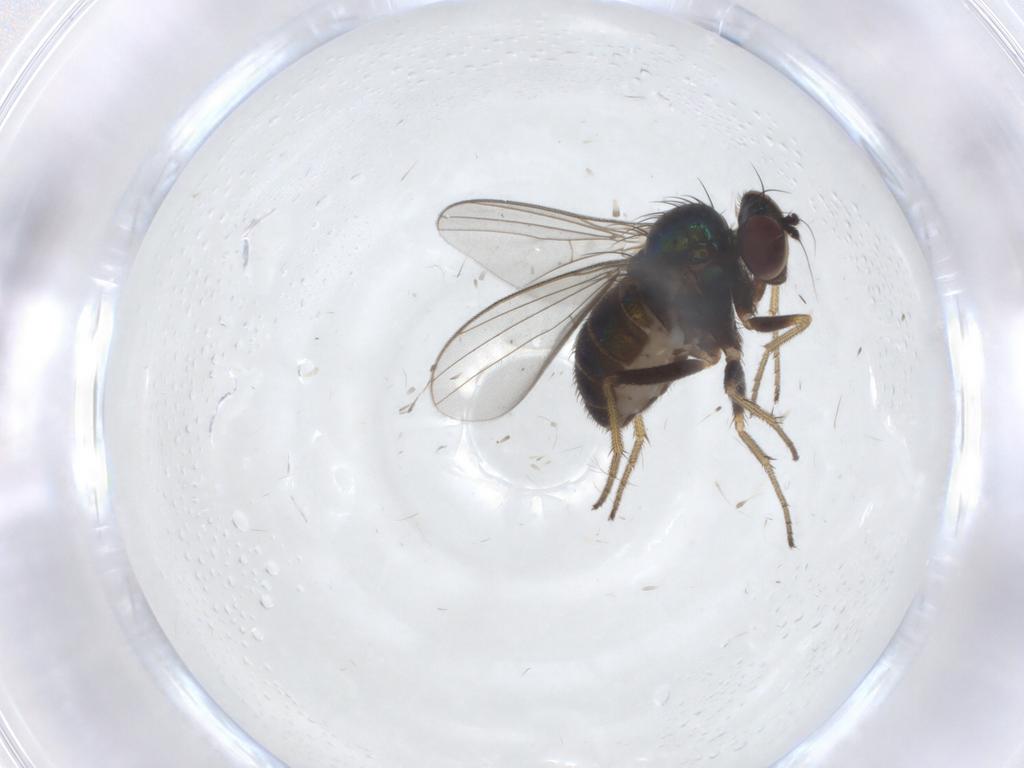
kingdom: Animalia
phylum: Arthropoda
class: Insecta
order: Diptera
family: Dolichopodidae
